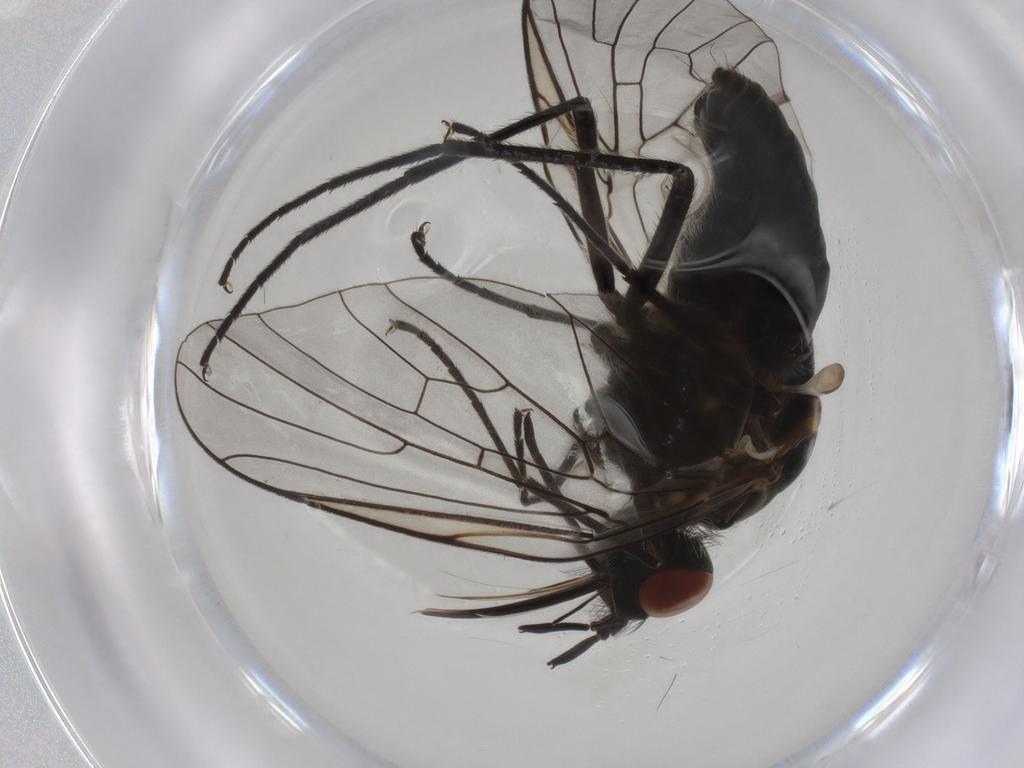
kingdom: Animalia
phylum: Arthropoda
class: Insecta
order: Diptera
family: Bombyliidae
